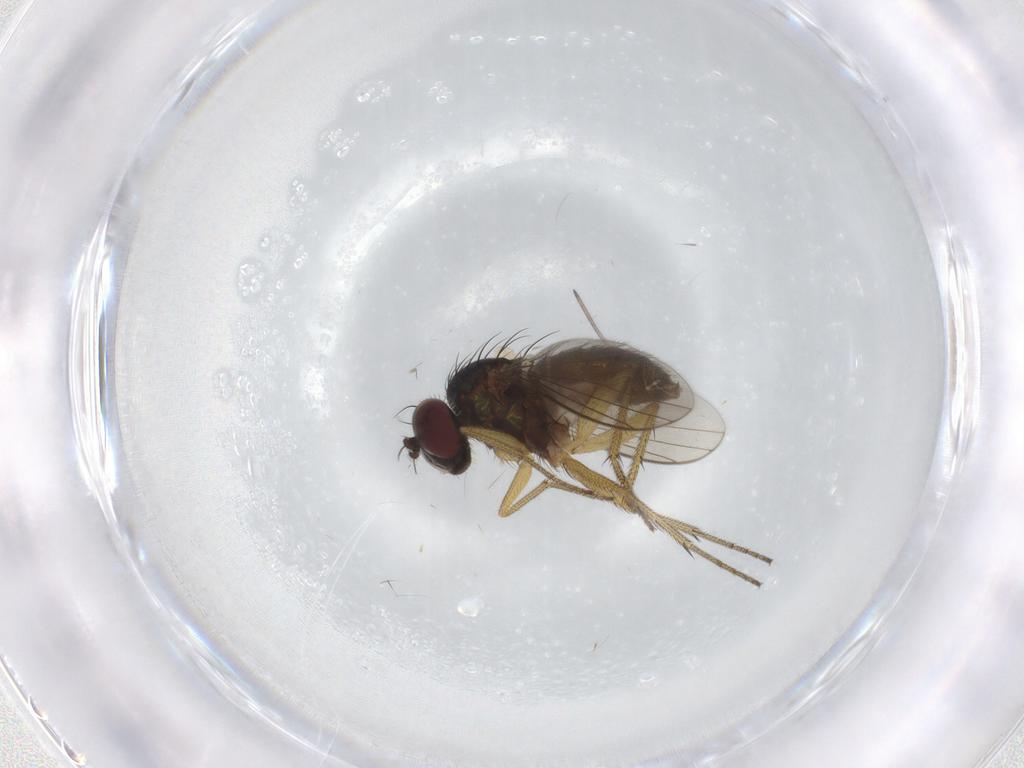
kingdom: Animalia
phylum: Arthropoda
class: Insecta
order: Diptera
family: Dolichopodidae
